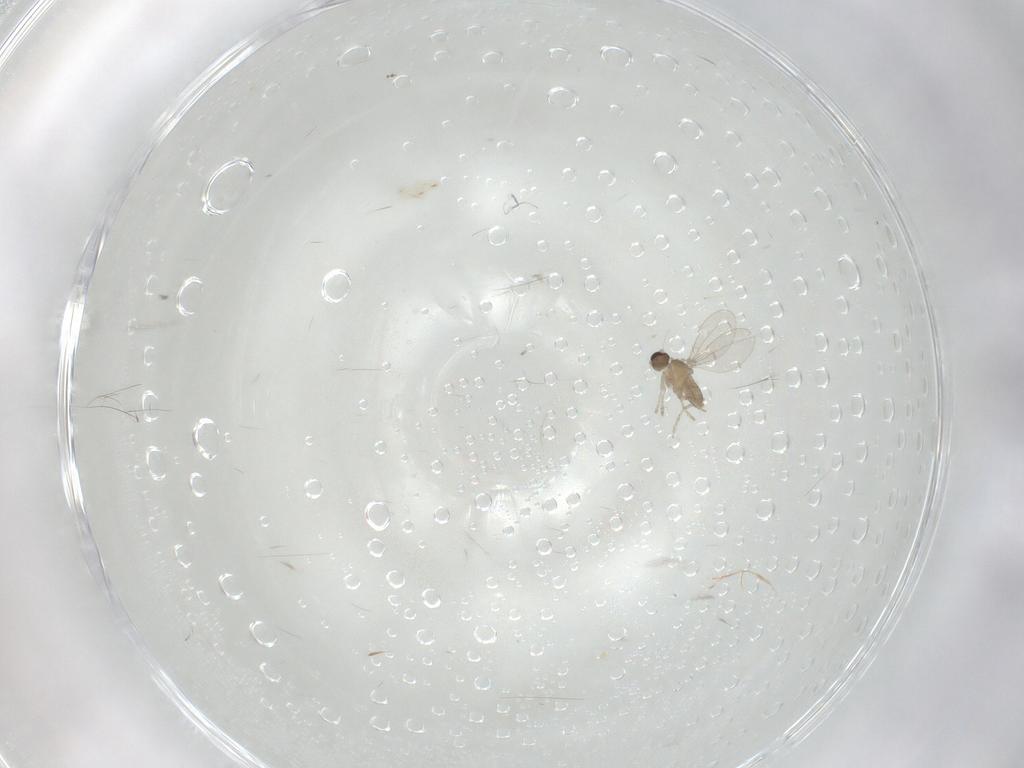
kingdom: Animalia
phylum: Arthropoda
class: Insecta
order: Diptera
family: Cecidomyiidae
